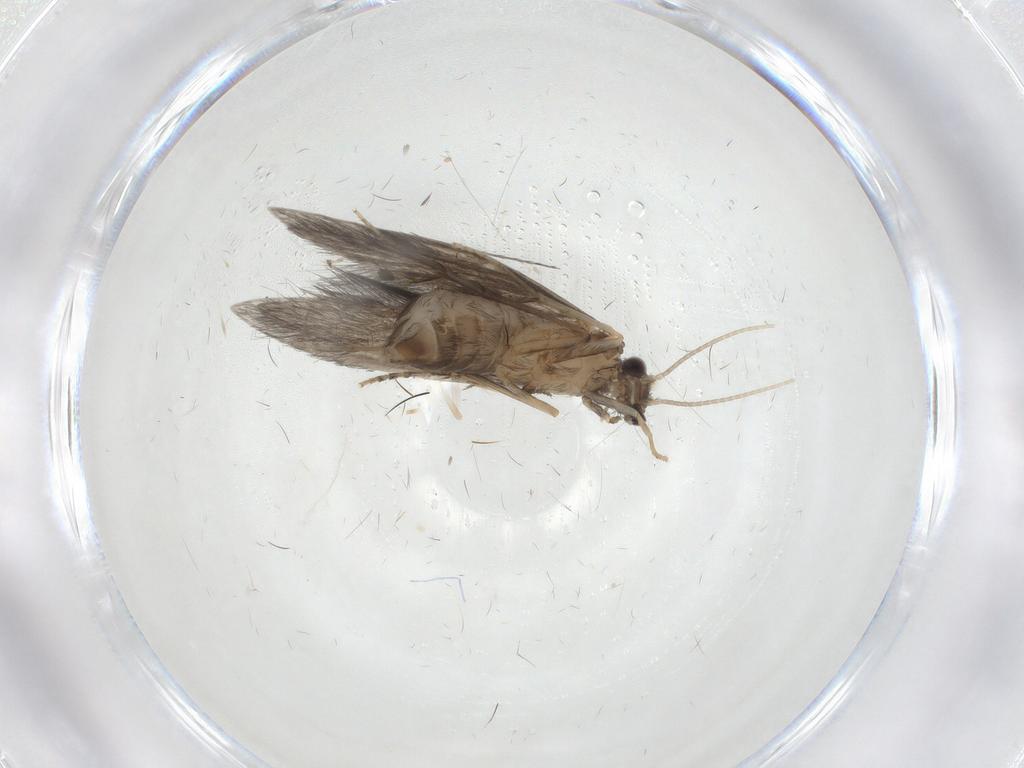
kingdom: Animalia
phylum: Arthropoda
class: Insecta
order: Trichoptera
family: Hydroptilidae
